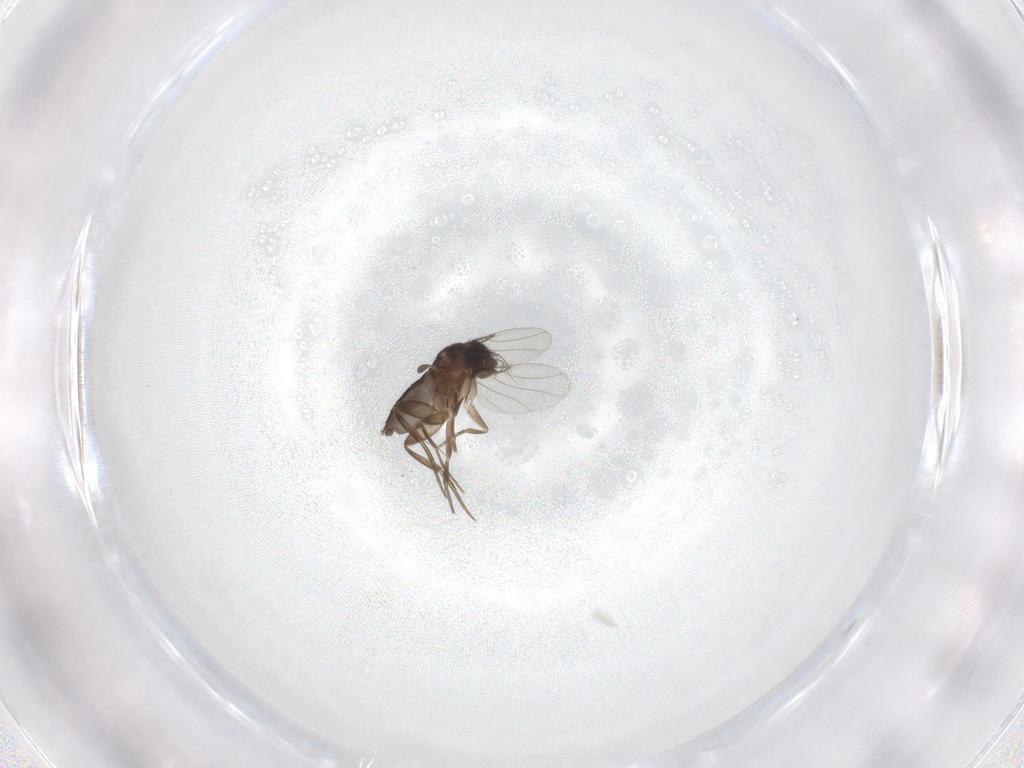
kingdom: Animalia
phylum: Arthropoda
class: Insecta
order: Diptera
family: Phoridae
